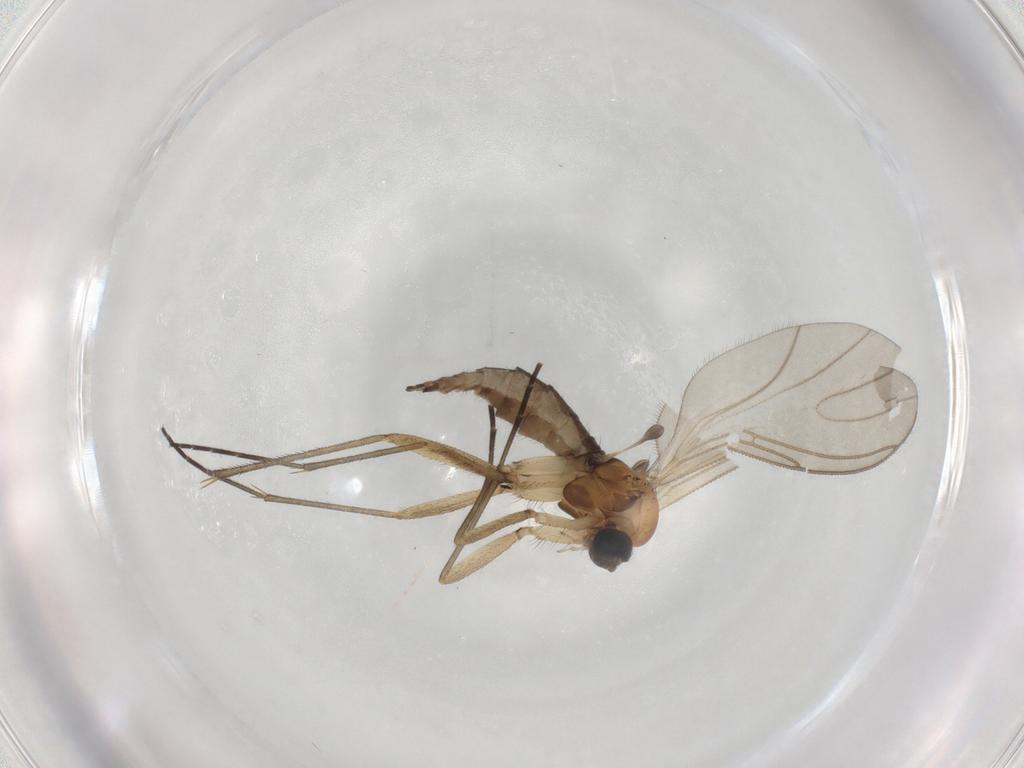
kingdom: Animalia
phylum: Arthropoda
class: Insecta
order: Diptera
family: Sciaridae
